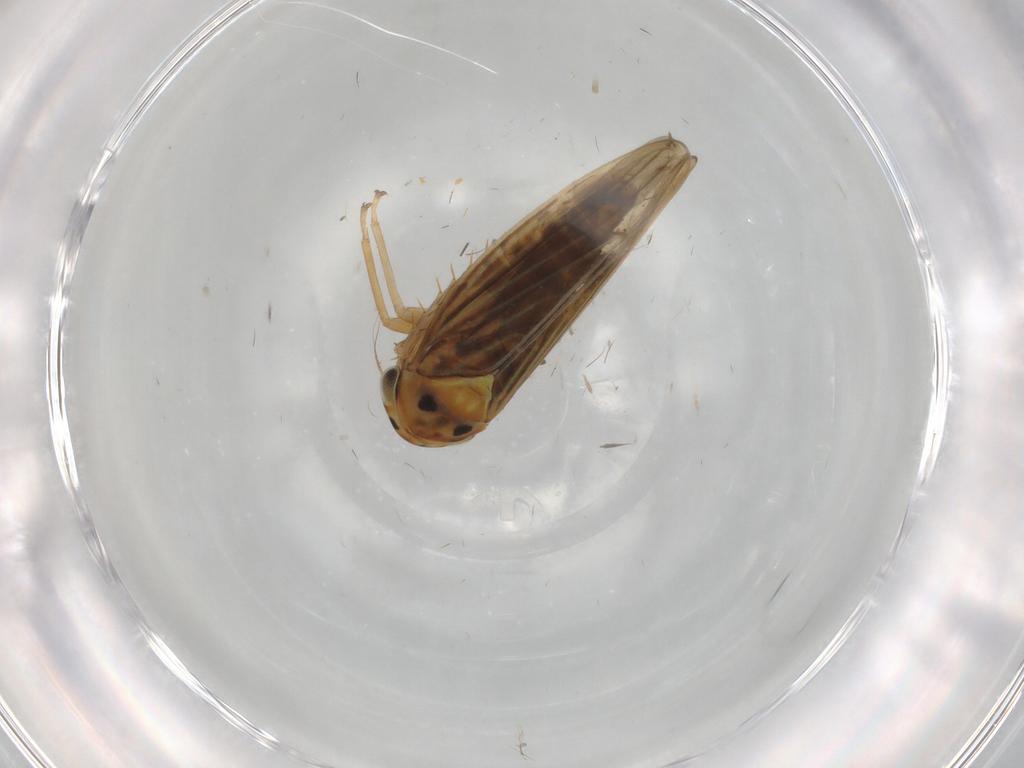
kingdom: Animalia
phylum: Arthropoda
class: Insecta
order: Hemiptera
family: Cicadellidae
